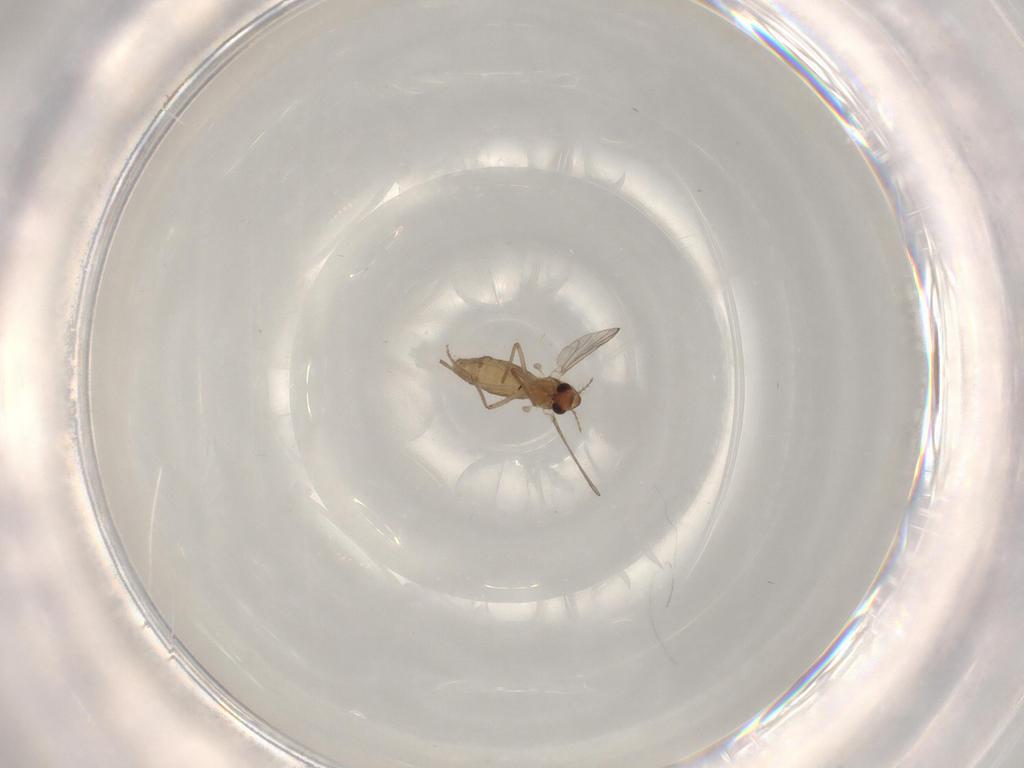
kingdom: Animalia
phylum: Arthropoda
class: Insecta
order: Diptera
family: Chironomidae
